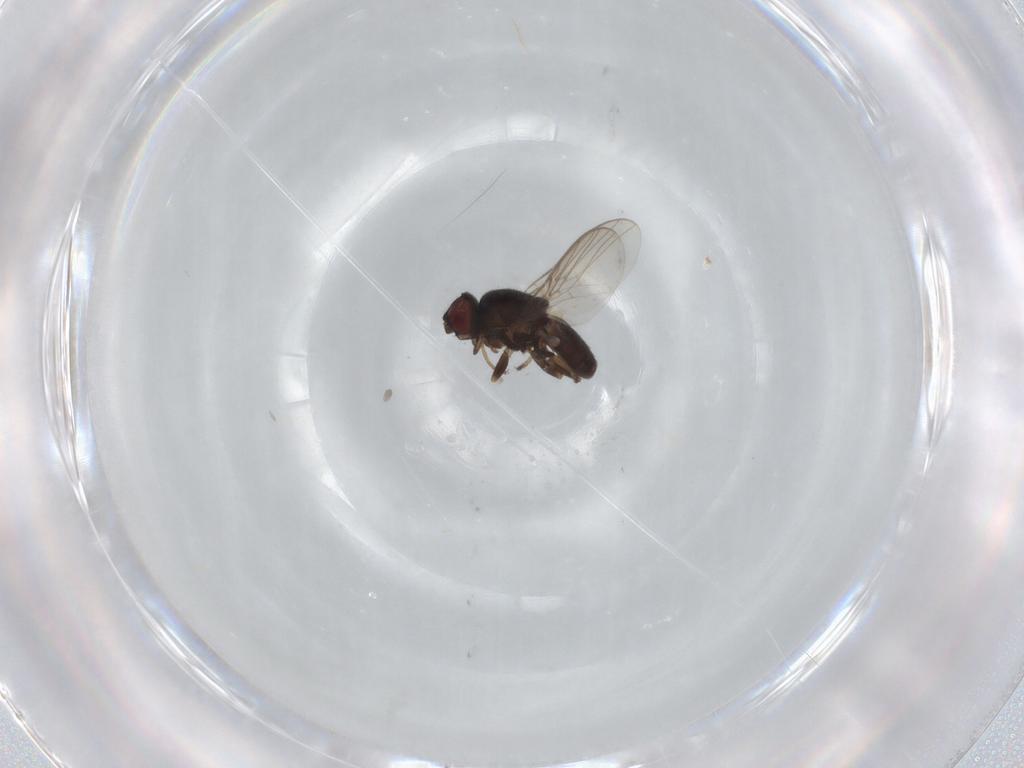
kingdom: Animalia
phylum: Arthropoda
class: Insecta
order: Diptera
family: Chloropidae
